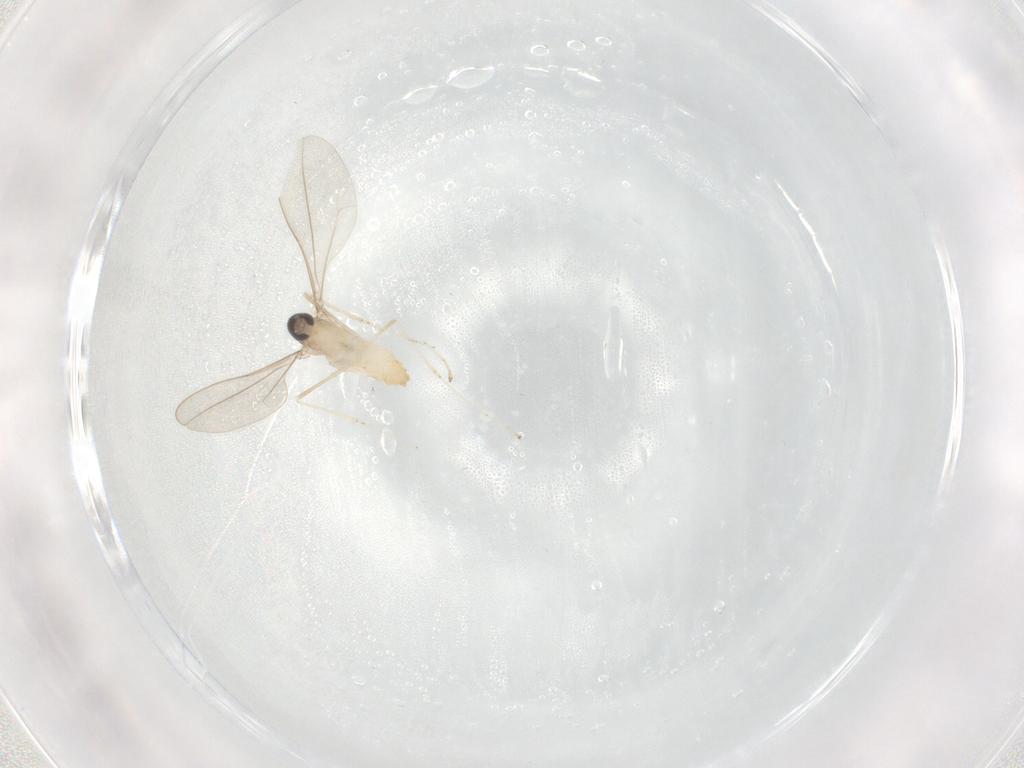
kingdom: Animalia
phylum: Arthropoda
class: Insecta
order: Diptera
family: Cecidomyiidae
